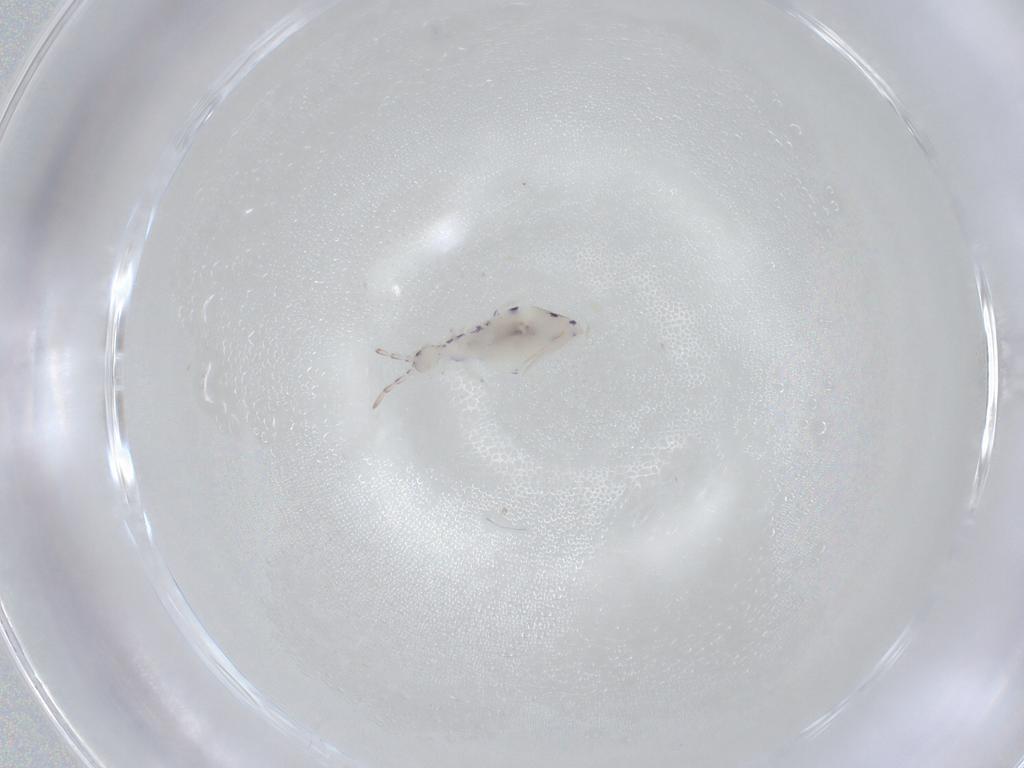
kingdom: Animalia
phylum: Arthropoda
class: Collembola
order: Entomobryomorpha
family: Entomobryidae
